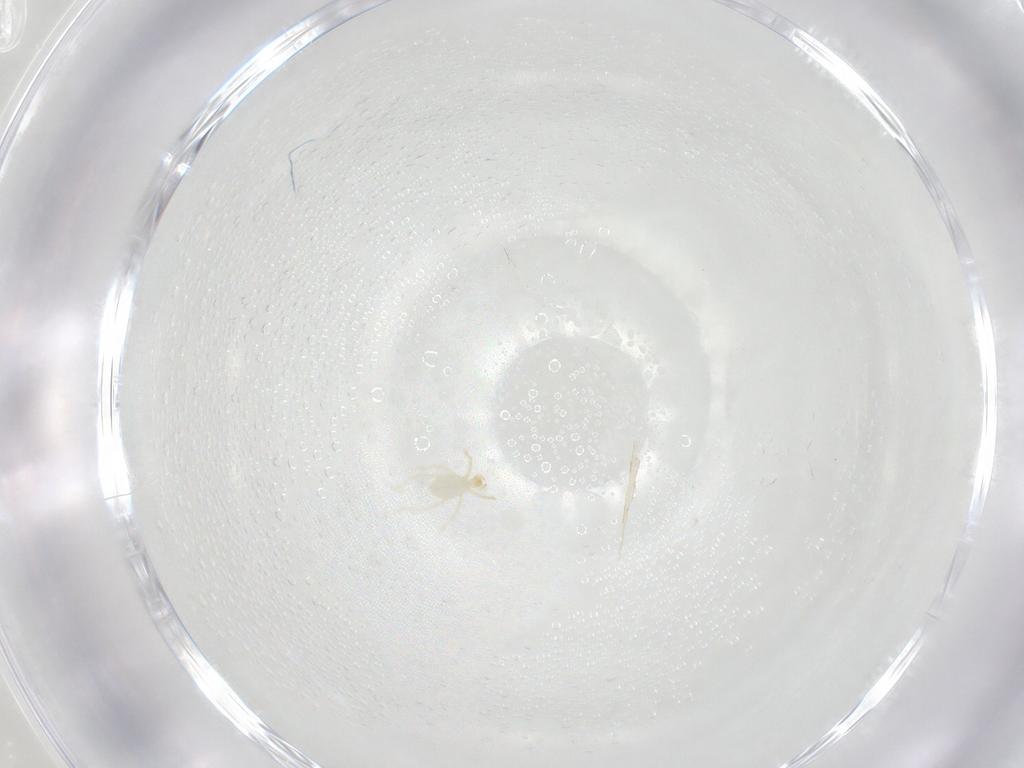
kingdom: Animalia
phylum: Arthropoda
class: Arachnida
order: Trombidiformes
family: Erythraeidae
